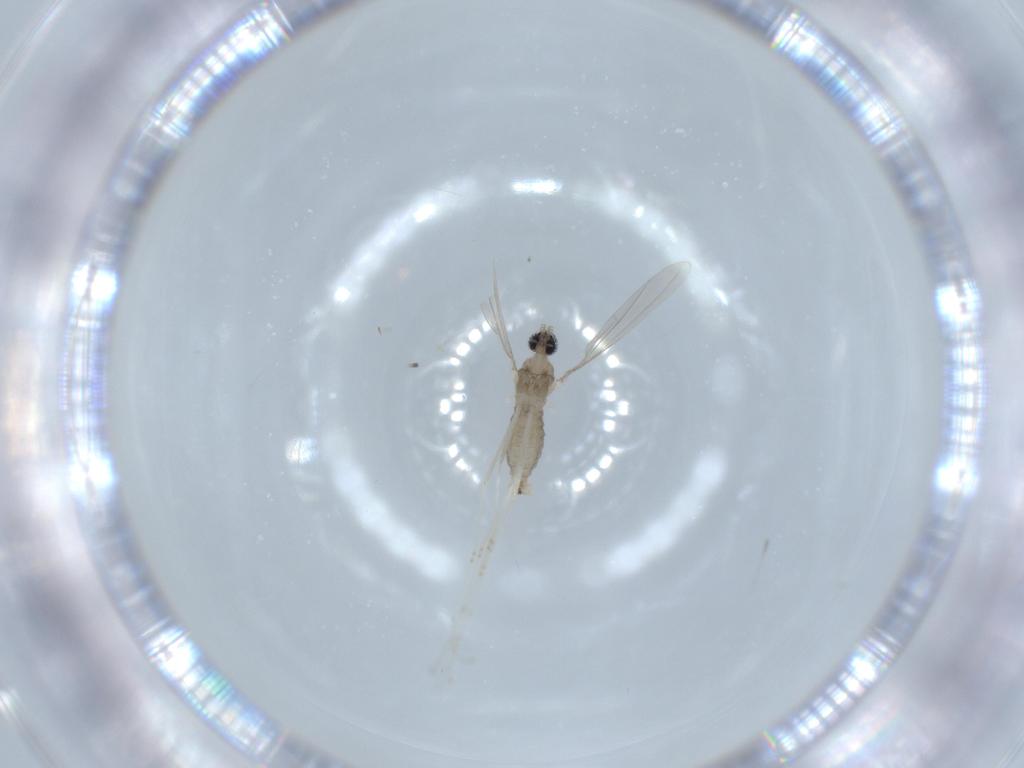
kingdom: Animalia
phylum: Arthropoda
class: Insecta
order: Diptera
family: Cecidomyiidae
